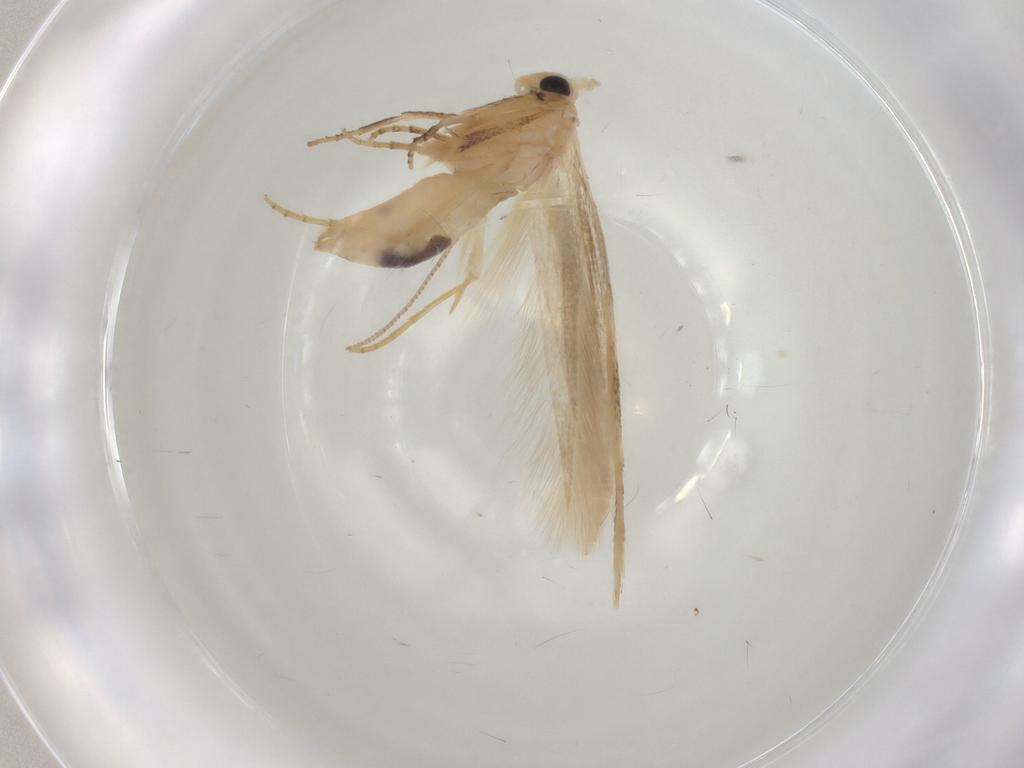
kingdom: Animalia
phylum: Arthropoda
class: Insecta
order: Lepidoptera
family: Bucculatricidae
